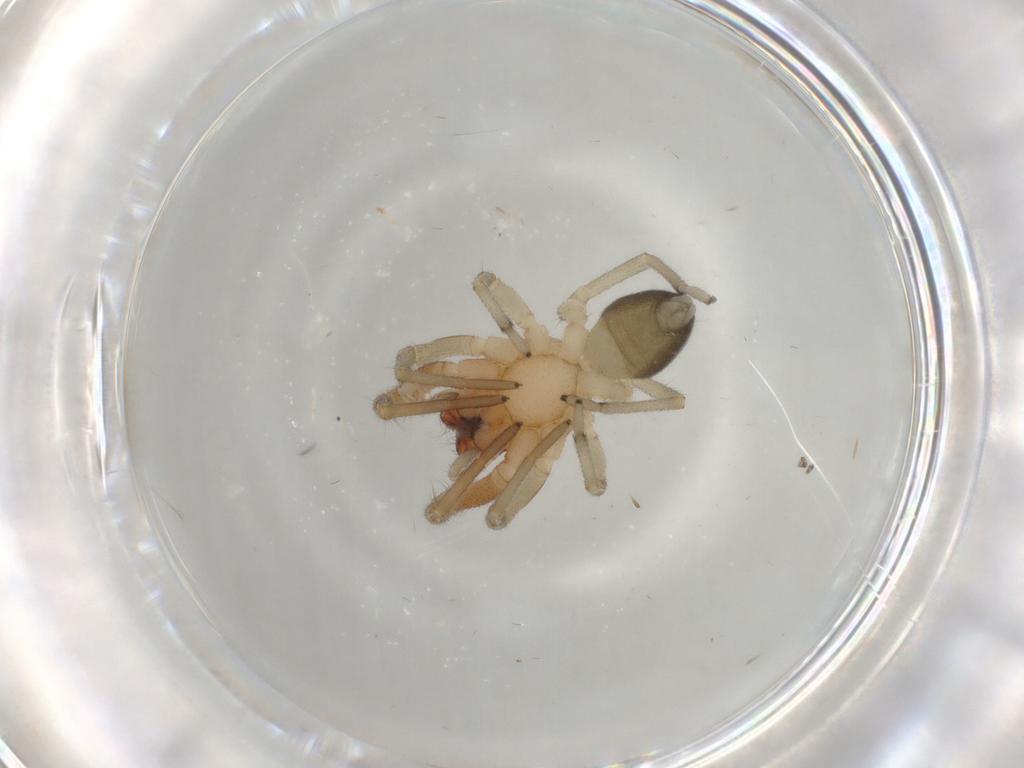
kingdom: Animalia
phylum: Arthropoda
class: Arachnida
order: Araneae
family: Trachelidae
